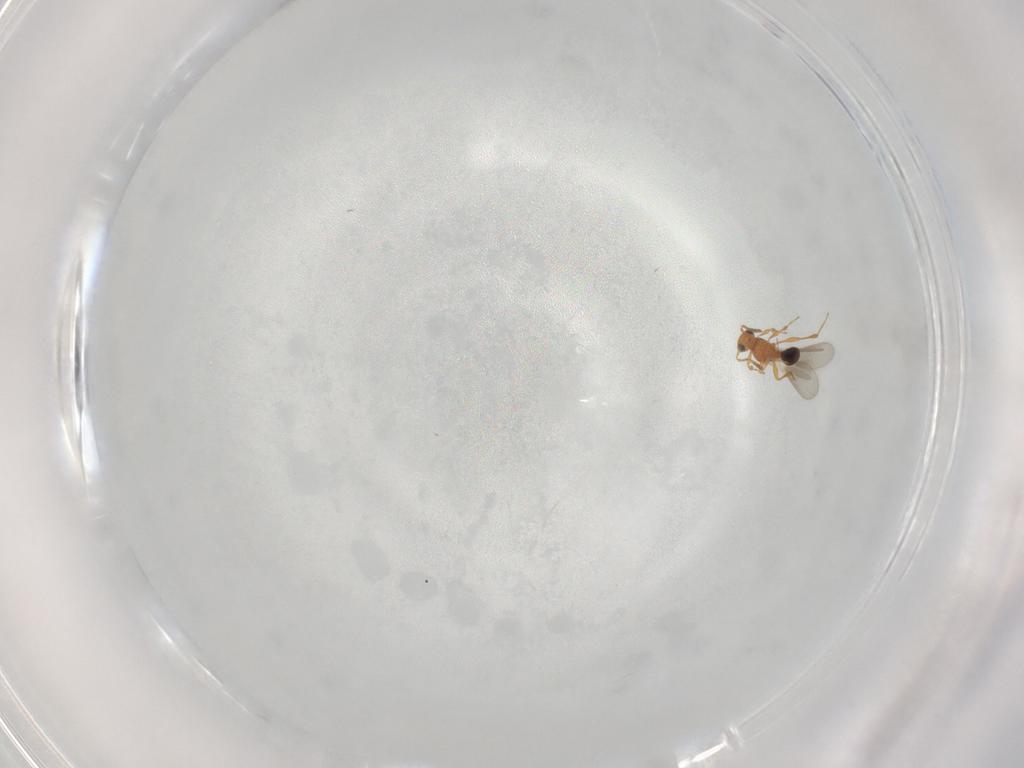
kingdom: Animalia
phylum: Arthropoda
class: Insecta
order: Hymenoptera
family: Platygastridae
